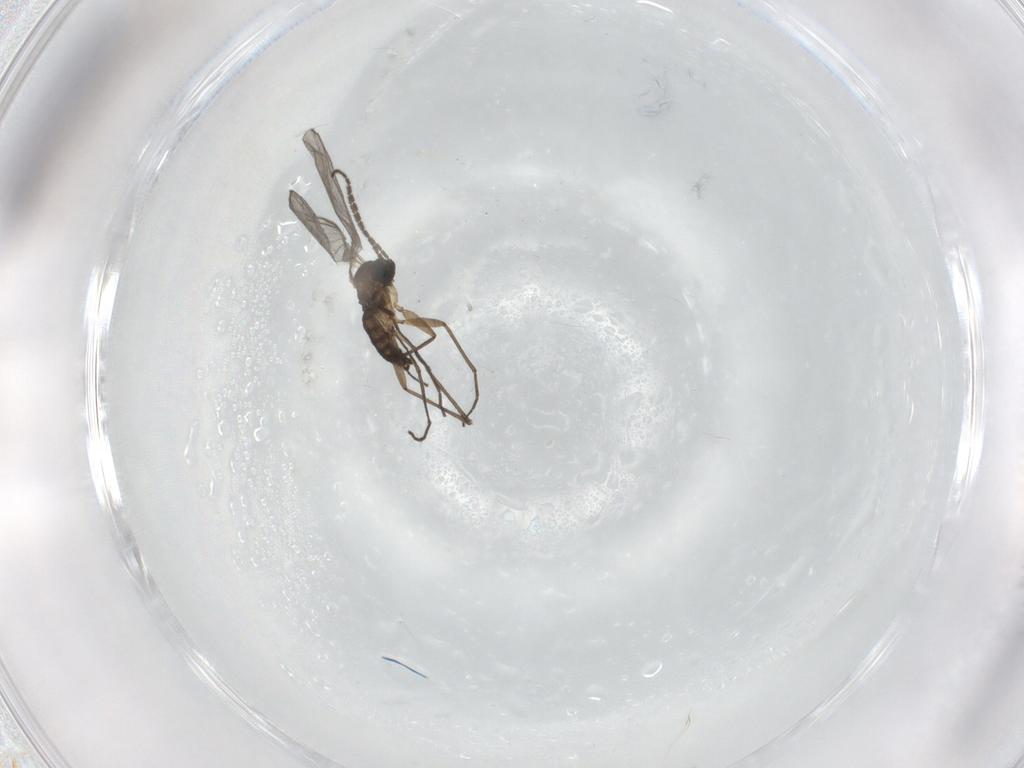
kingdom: Animalia
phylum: Arthropoda
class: Insecta
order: Diptera
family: Sciaridae
